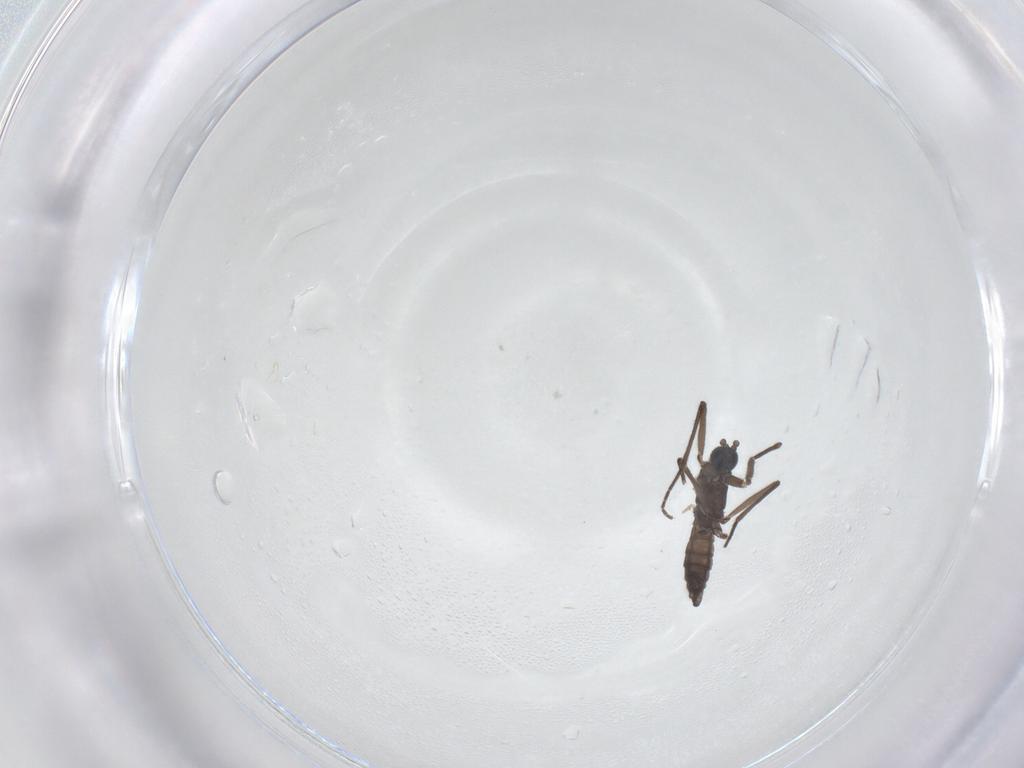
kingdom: Animalia
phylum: Arthropoda
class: Insecta
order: Diptera
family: Sciaridae
